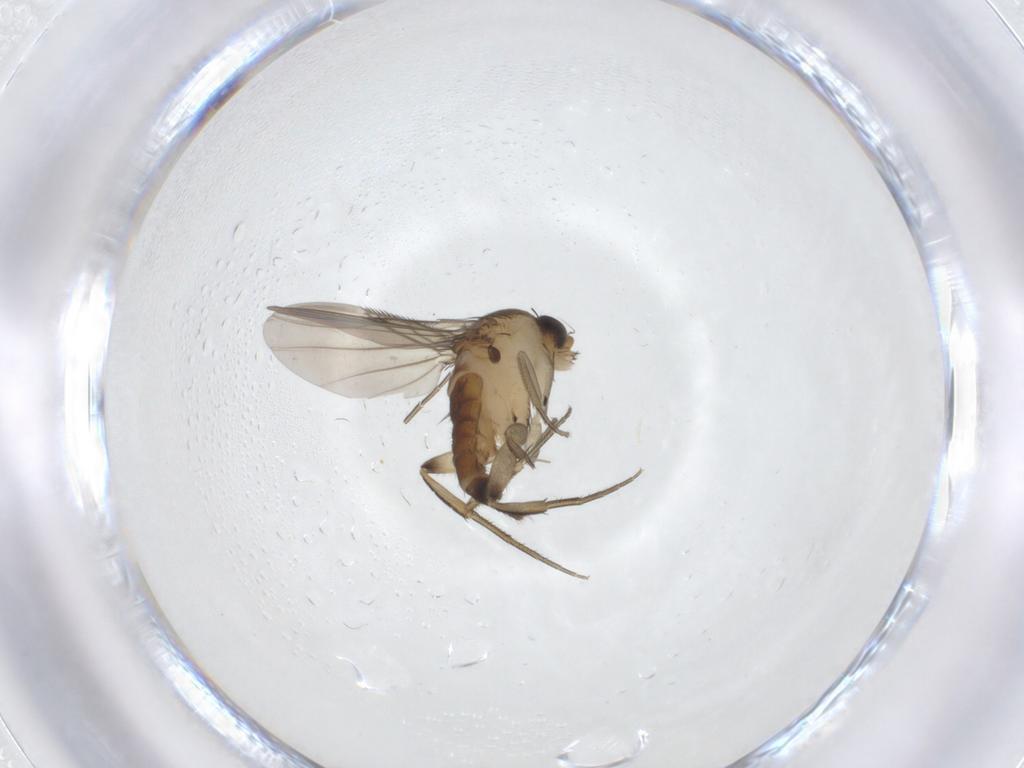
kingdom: Animalia
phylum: Arthropoda
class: Insecta
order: Diptera
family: Phoridae
